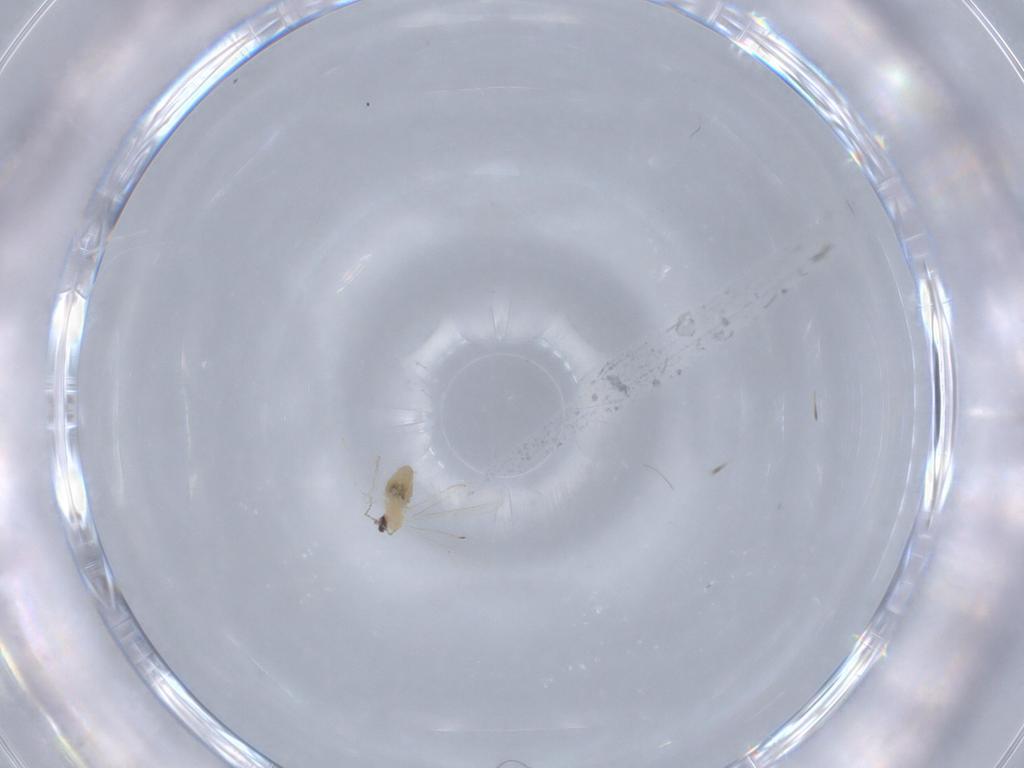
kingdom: Animalia
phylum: Arthropoda
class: Insecta
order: Diptera
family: Cecidomyiidae
